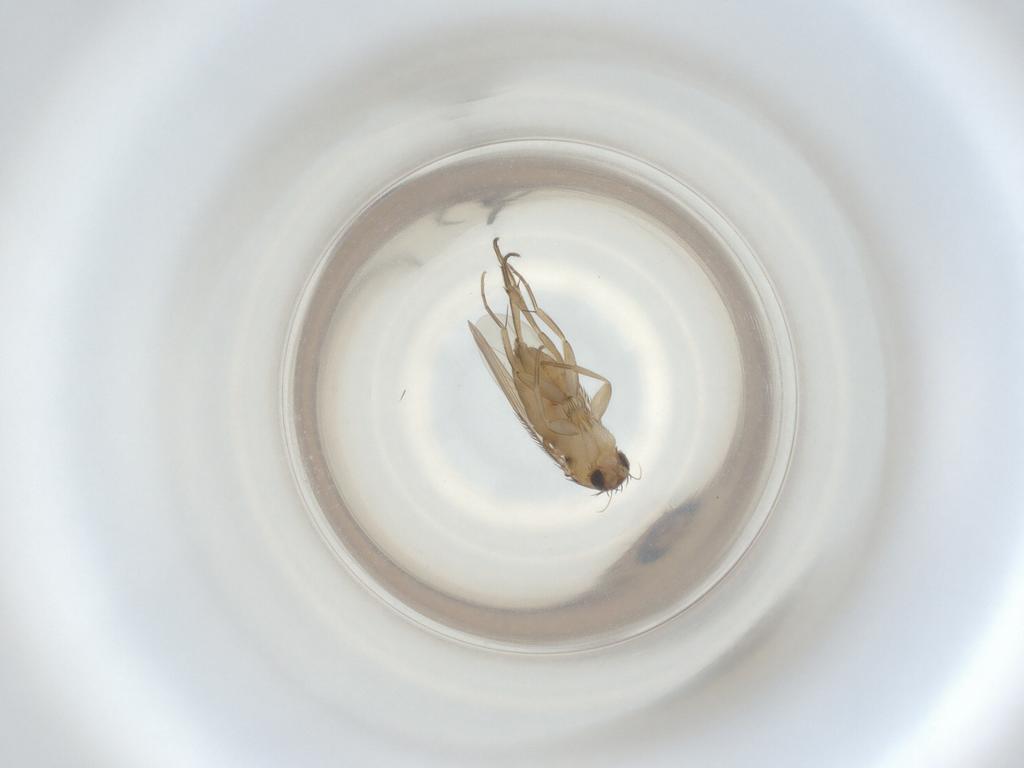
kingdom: Animalia
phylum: Arthropoda
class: Insecta
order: Diptera
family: Phoridae
